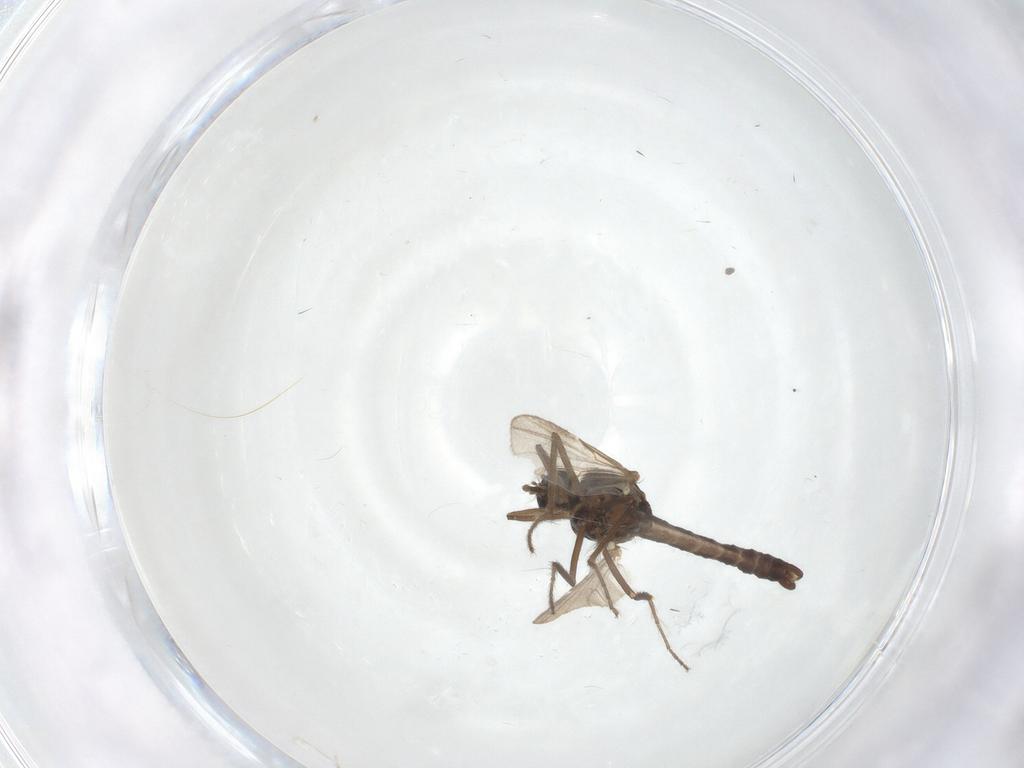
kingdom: Animalia
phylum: Arthropoda
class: Insecta
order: Diptera
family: Ceratopogonidae
